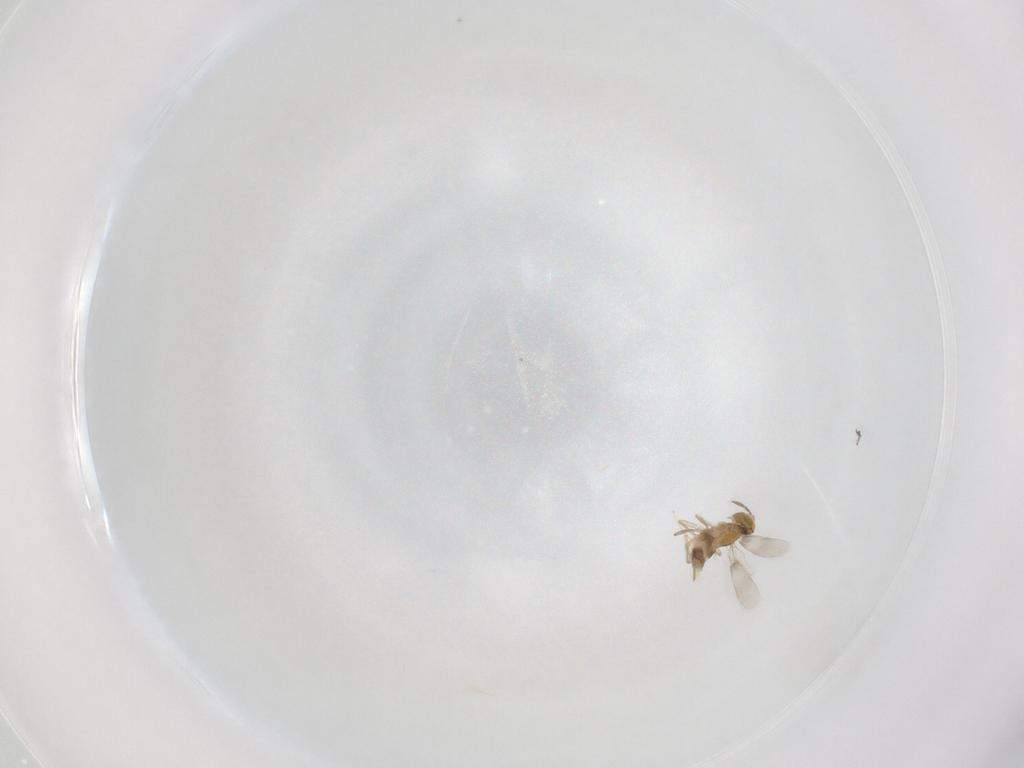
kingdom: Animalia
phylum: Arthropoda
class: Insecta
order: Hymenoptera
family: Aphelinidae
